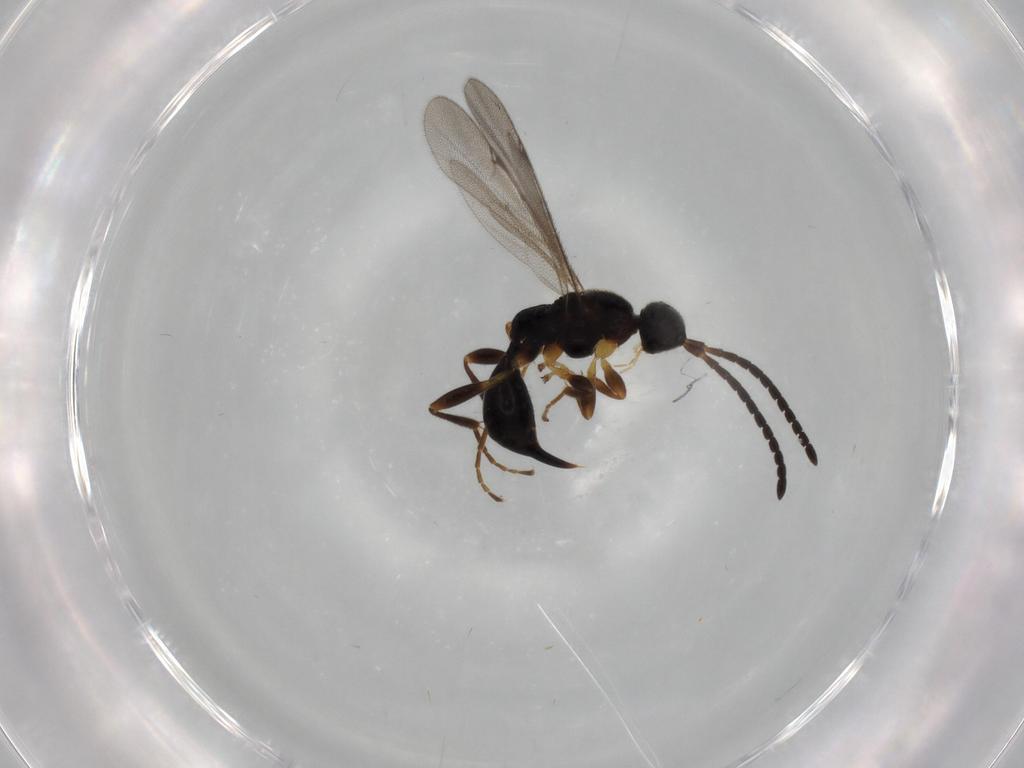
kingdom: Animalia
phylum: Arthropoda
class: Insecta
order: Hymenoptera
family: Proctotrupidae
